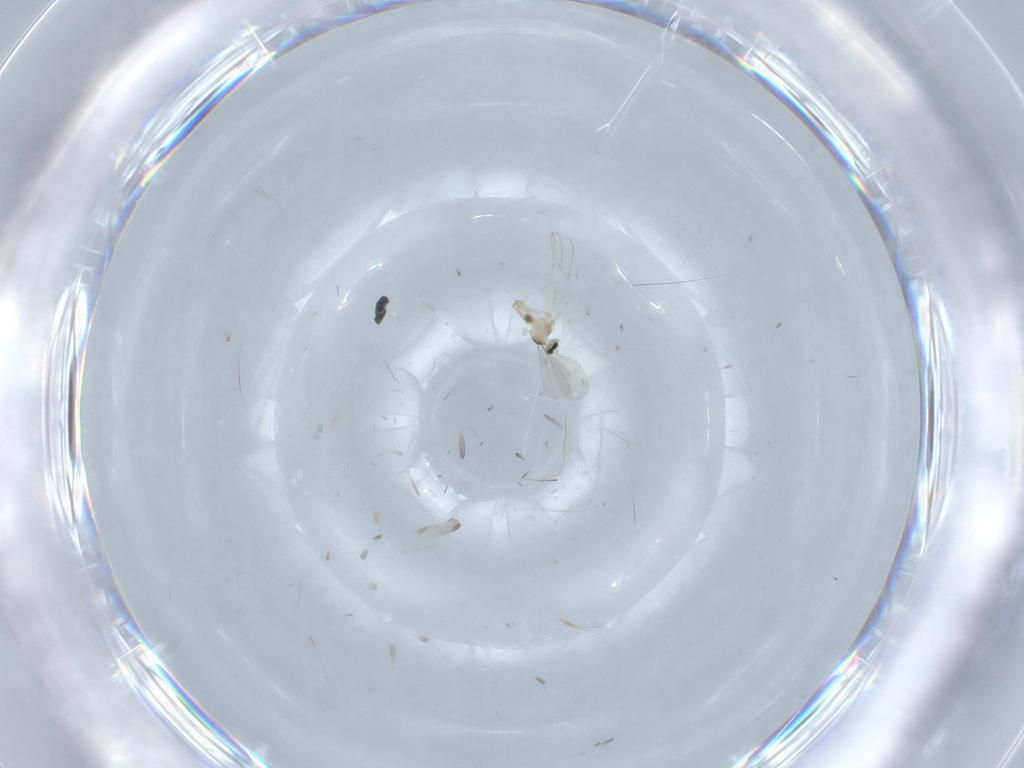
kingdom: Animalia
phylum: Arthropoda
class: Insecta
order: Diptera
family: Cecidomyiidae
